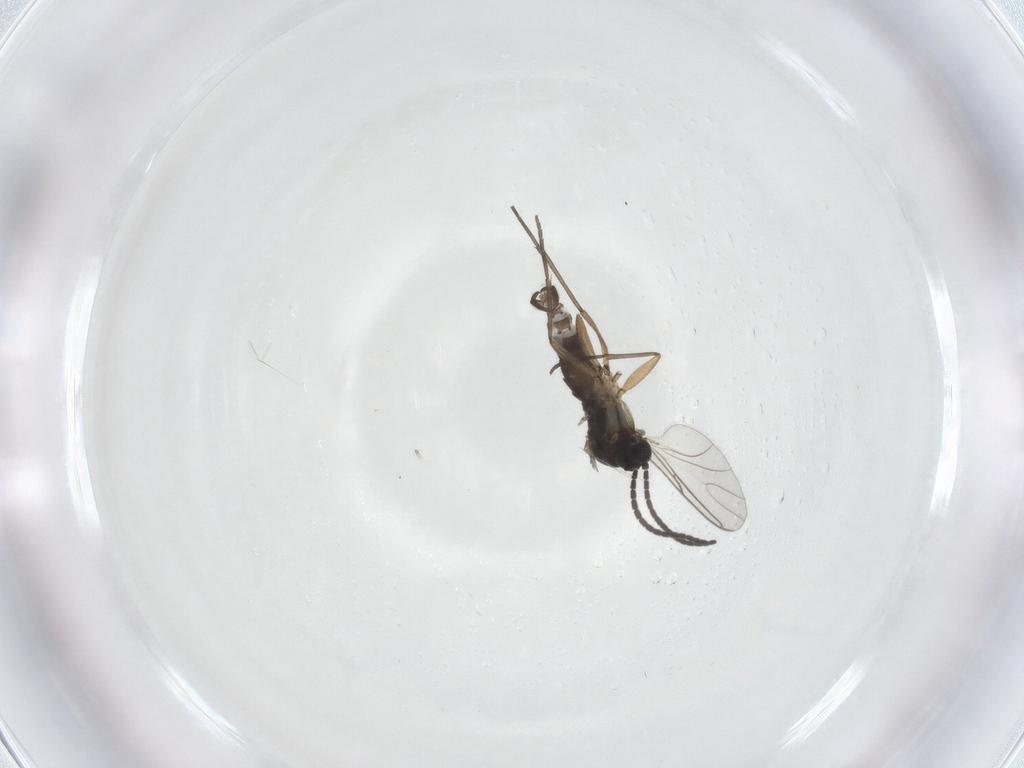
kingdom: Animalia
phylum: Arthropoda
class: Insecta
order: Diptera
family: Sciaridae
